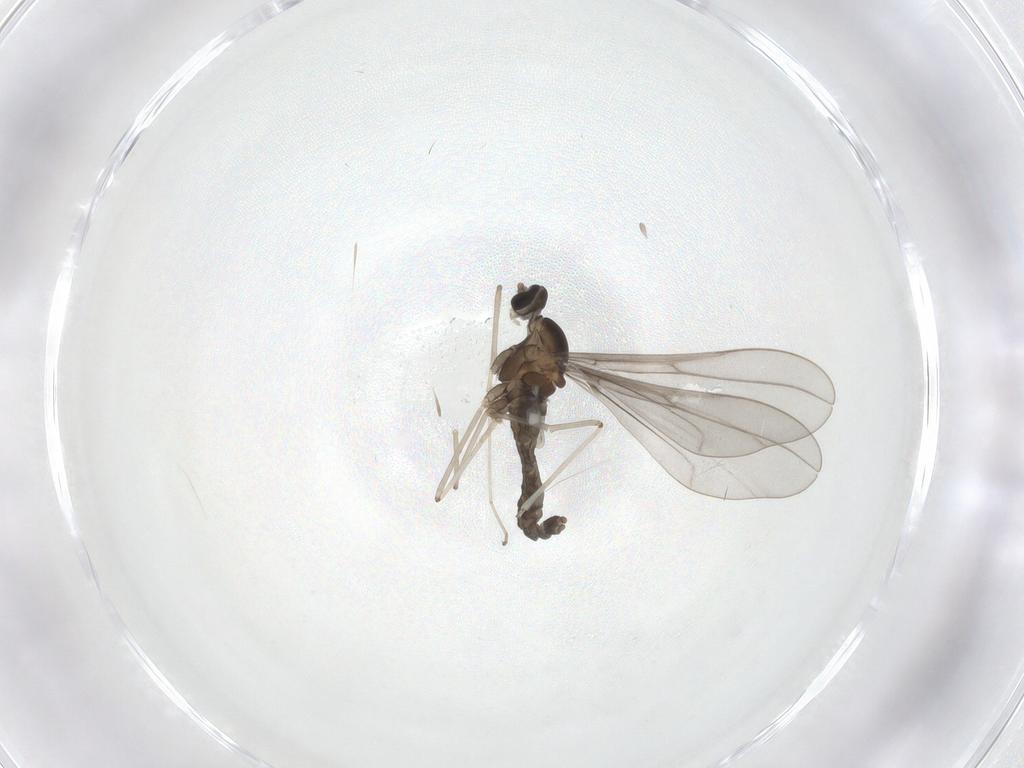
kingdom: Animalia
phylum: Arthropoda
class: Insecta
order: Diptera
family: Cecidomyiidae
